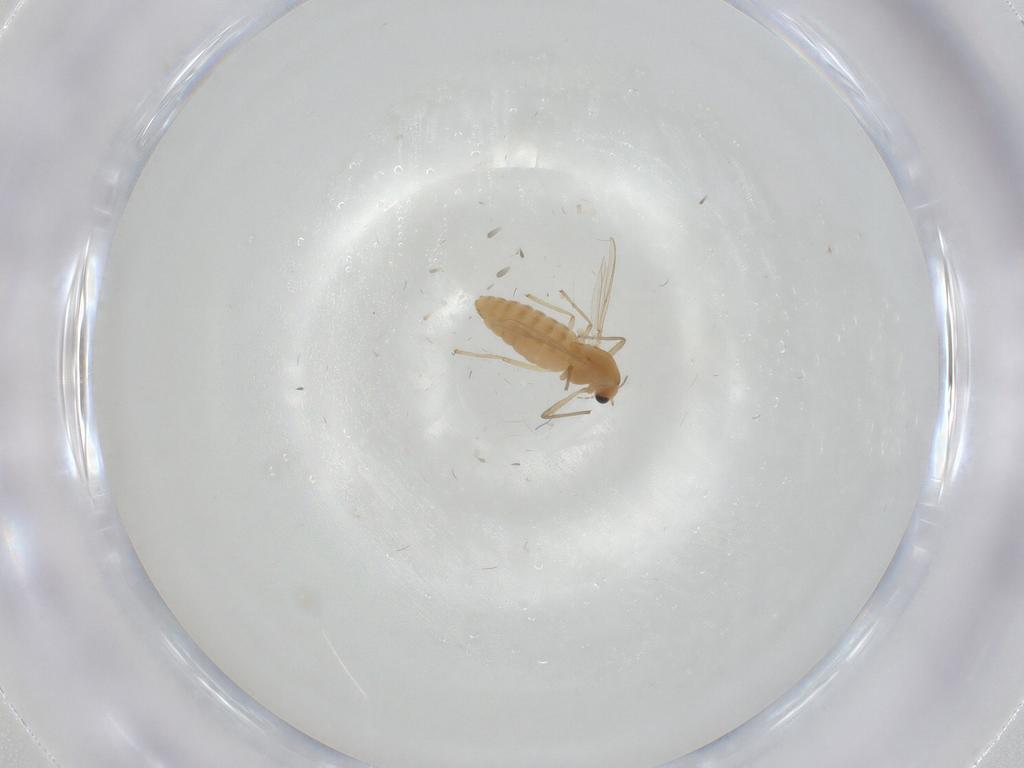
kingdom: Animalia
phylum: Arthropoda
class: Insecta
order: Diptera
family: Chironomidae
